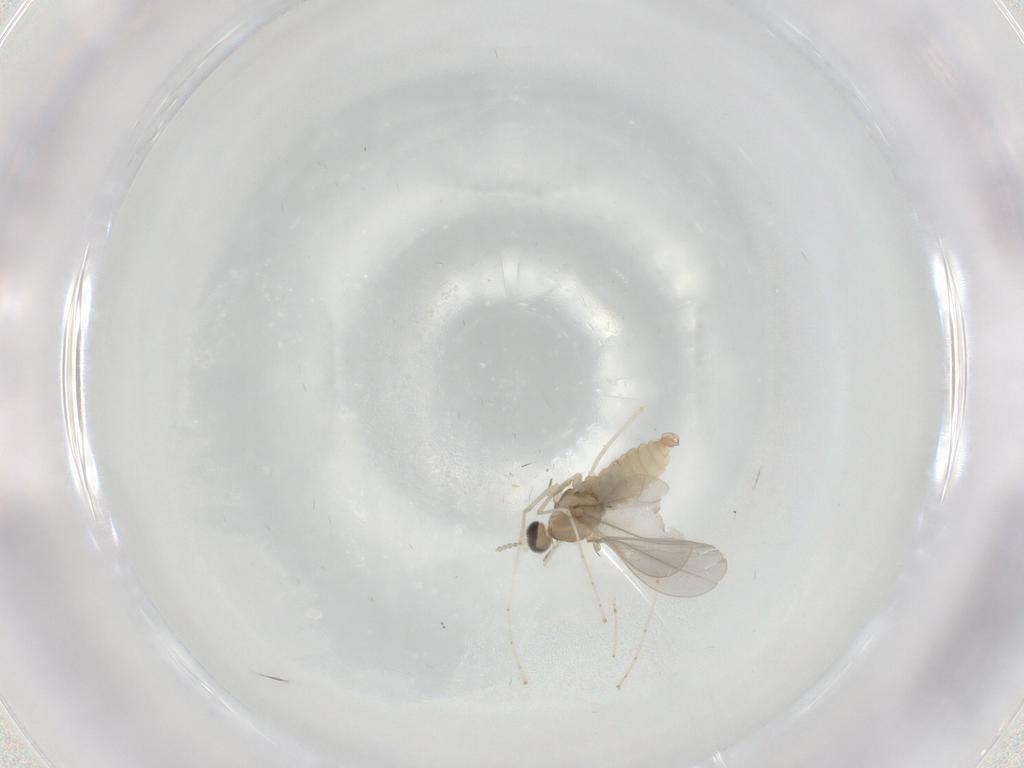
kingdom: Animalia
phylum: Arthropoda
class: Insecta
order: Diptera
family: Cecidomyiidae
